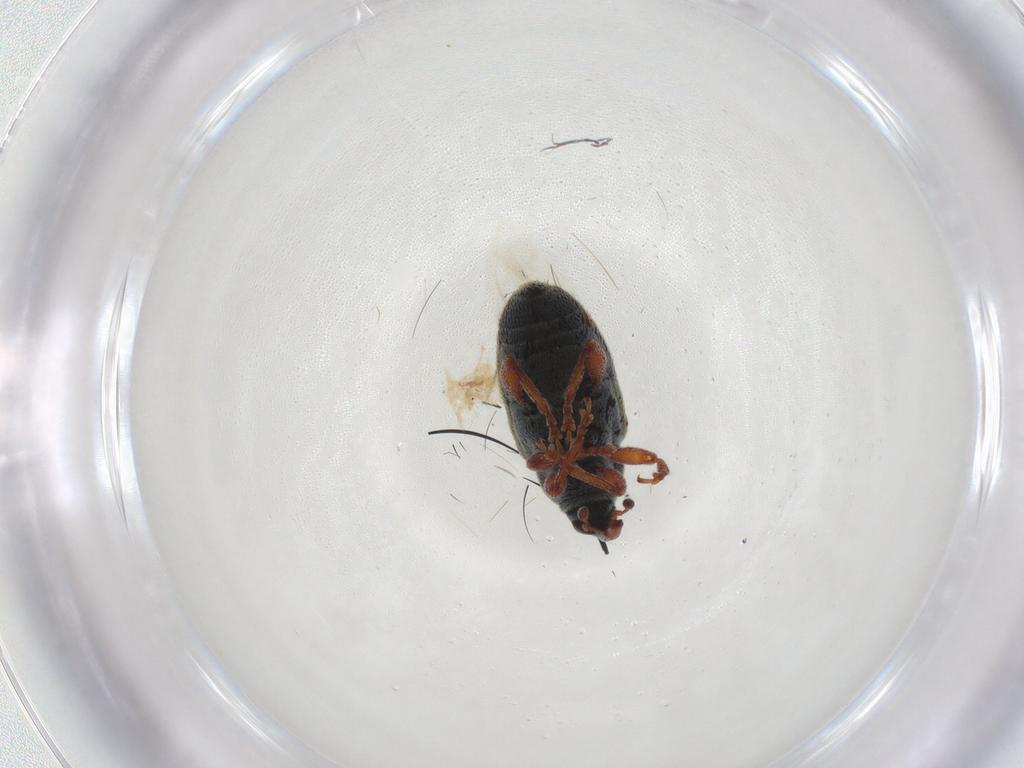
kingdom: Animalia
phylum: Arthropoda
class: Insecta
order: Coleoptera
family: Curculionidae
